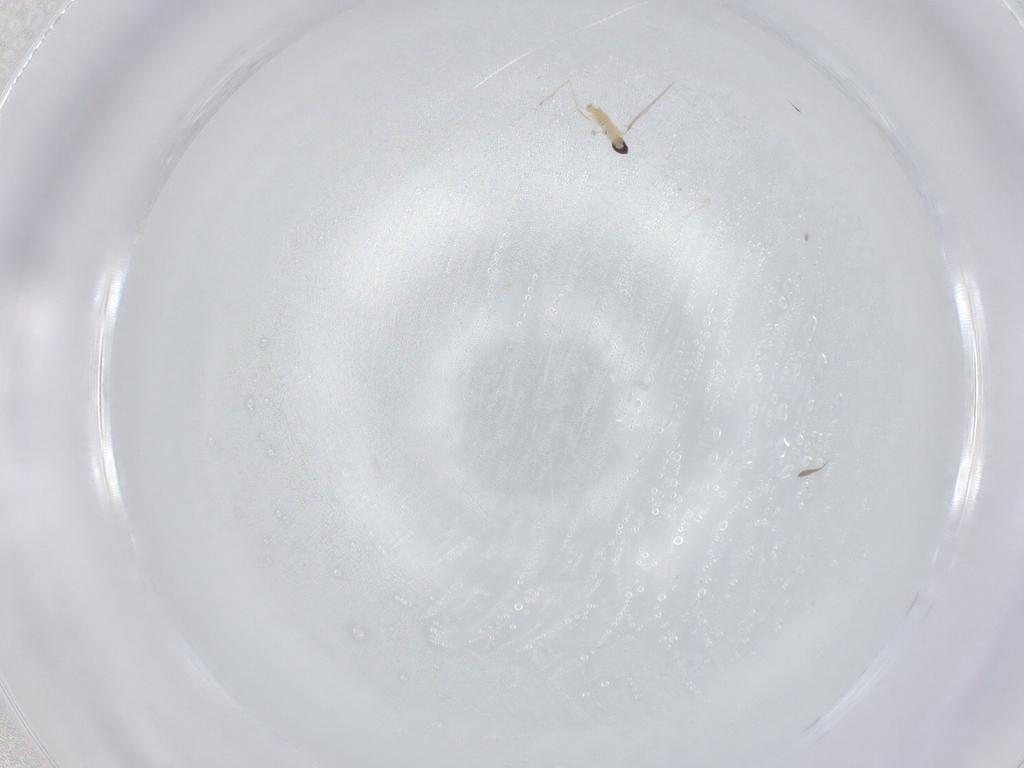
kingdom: Animalia
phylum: Arthropoda
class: Insecta
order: Diptera
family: Cecidomyiidae
